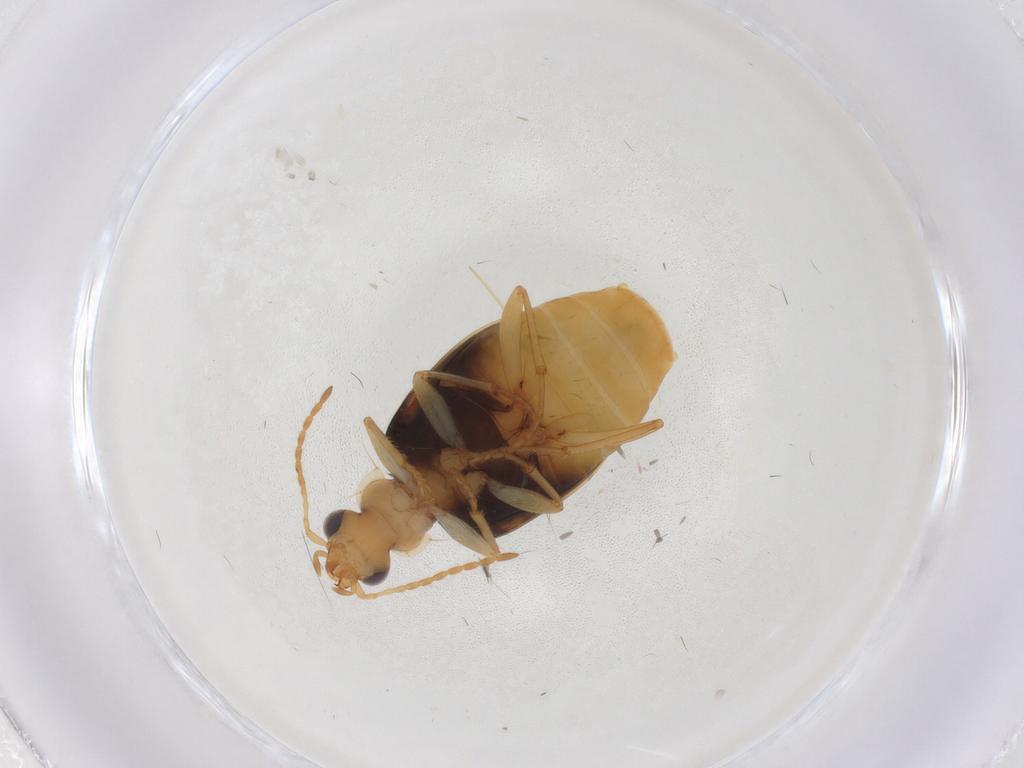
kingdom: Animalia
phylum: Arthropoda
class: Insecta
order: Coleoptera
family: Carabidae
